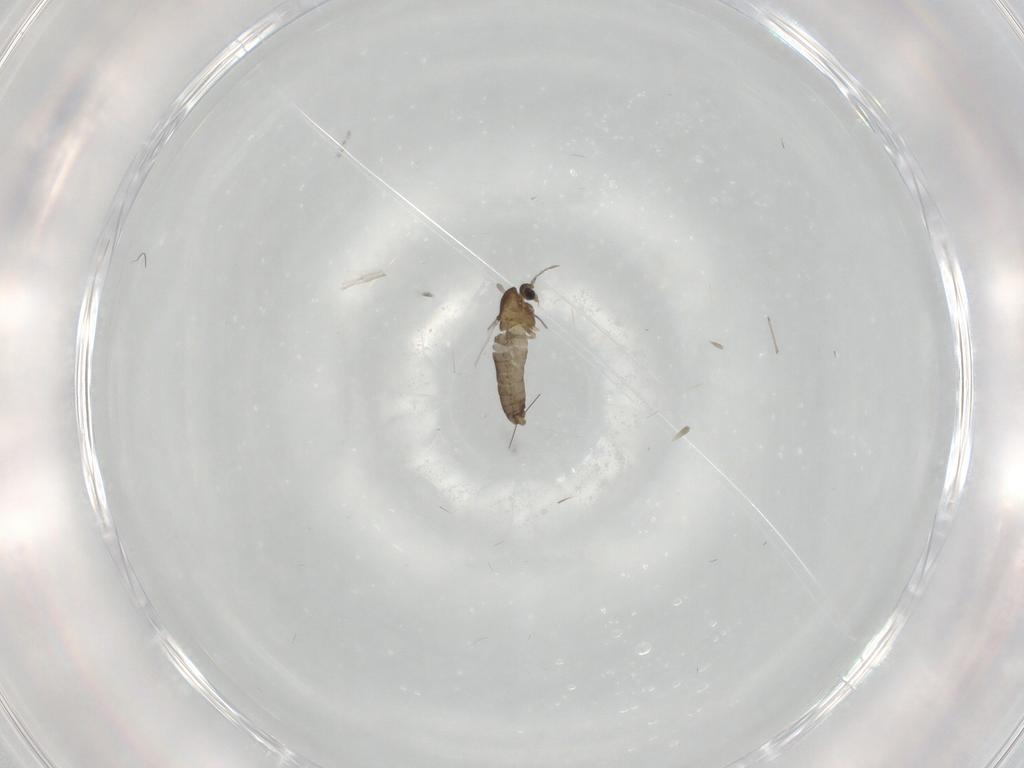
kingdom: Animalia
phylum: Arthropoda
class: Insecta
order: Diptera
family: Chironomidae
